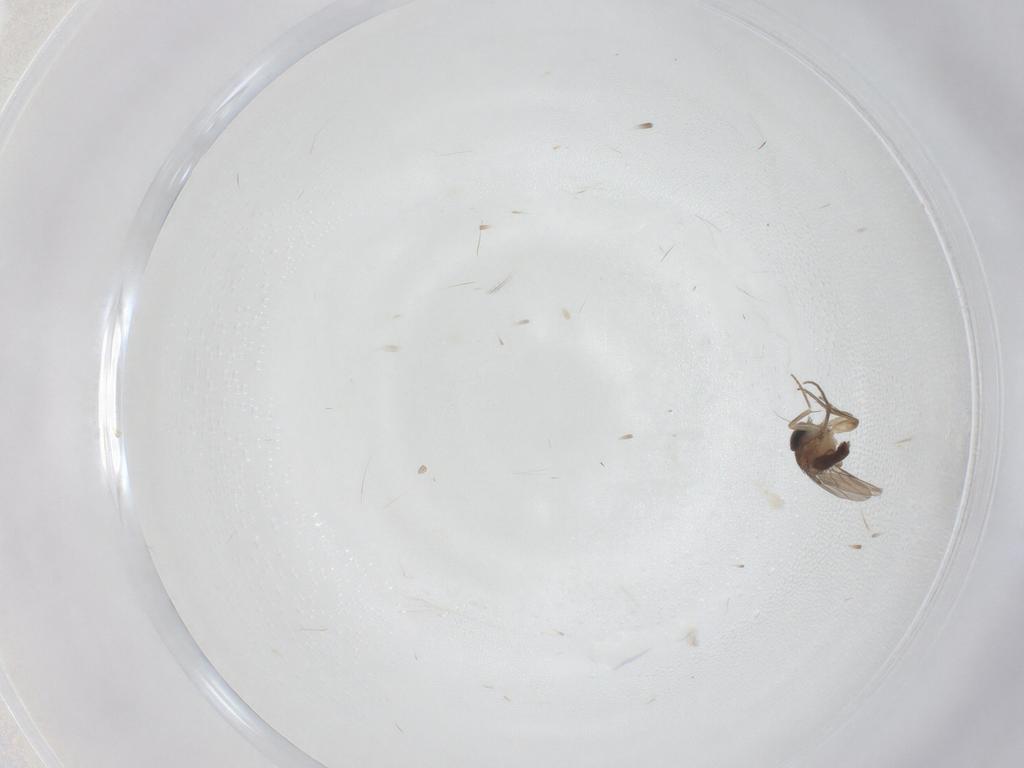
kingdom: Animalia
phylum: Arthropoda
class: Insecta
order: Diptera
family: Phoridae
